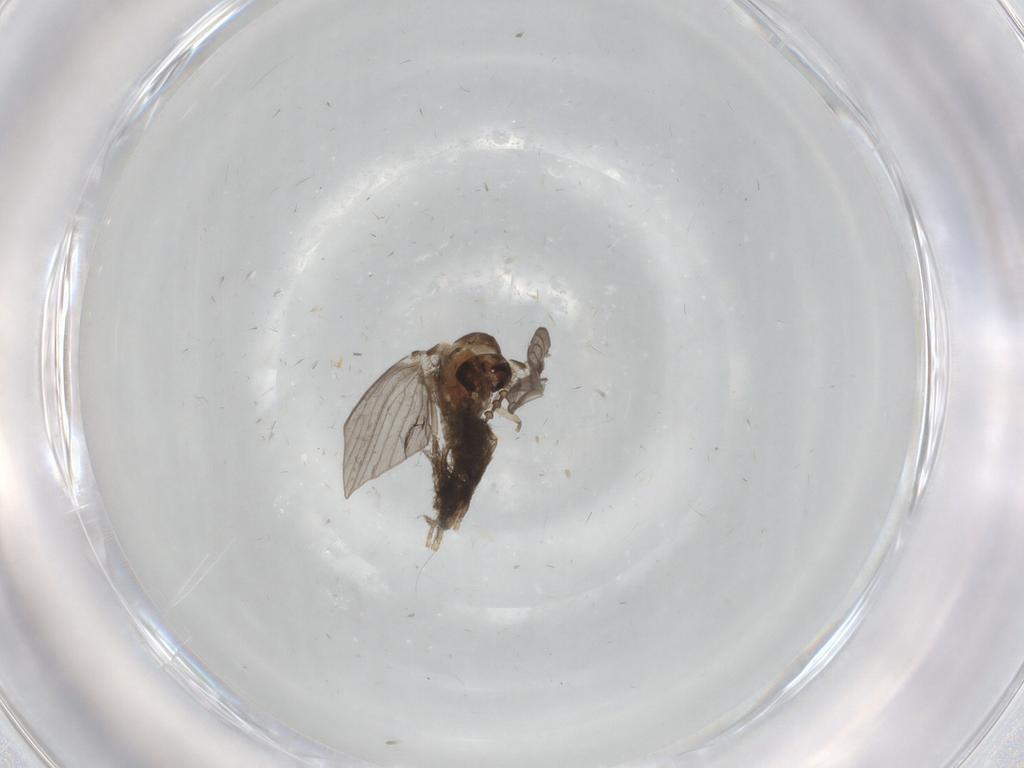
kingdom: Animalia
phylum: Arthropoda
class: Insecta
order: Diptera
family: Psychodidae
